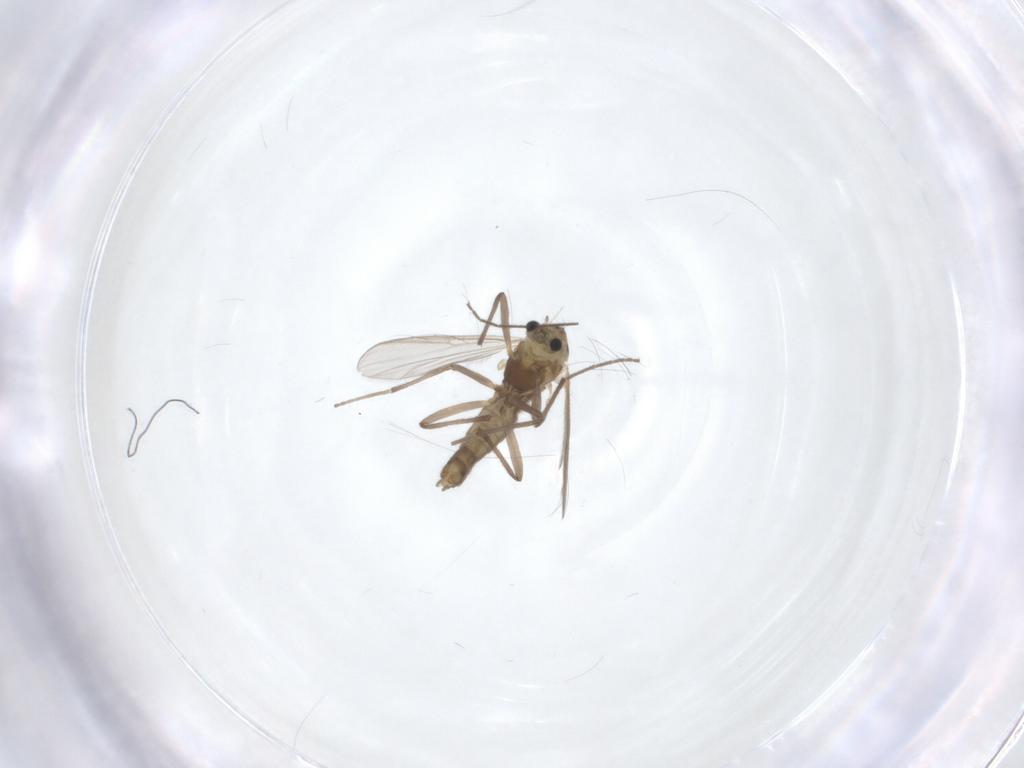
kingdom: Animalia
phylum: Arthropoda
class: Insecta
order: Diptera
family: Chironomidae
